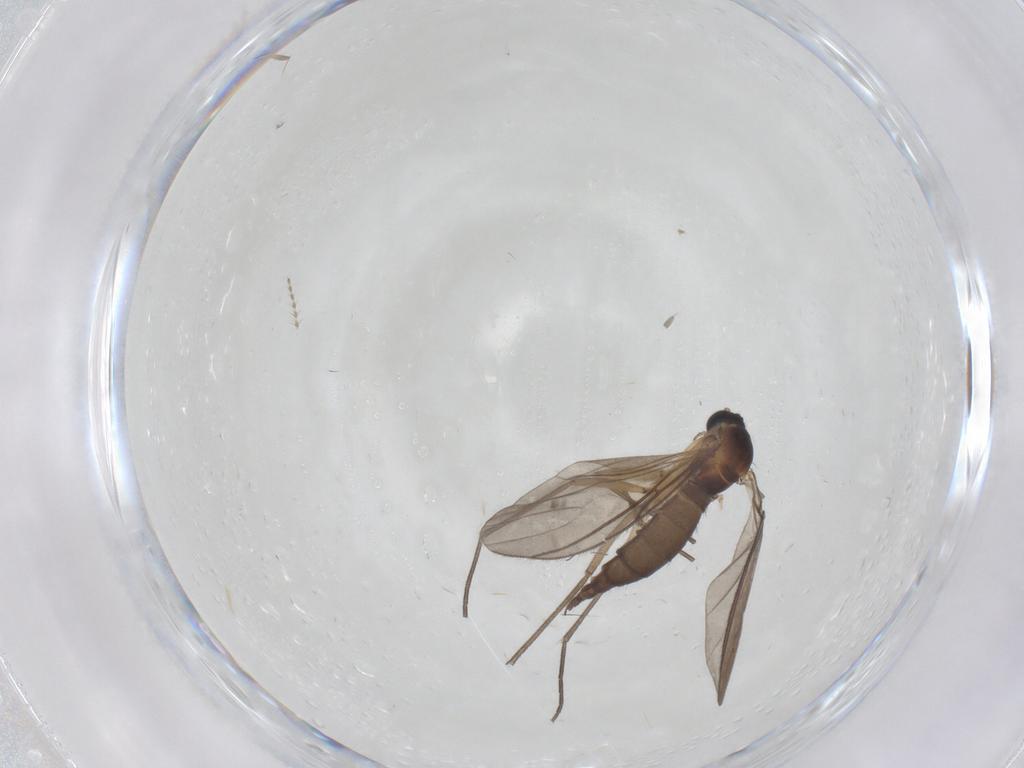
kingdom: Animalia
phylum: Arthropoda
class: Insecta
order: Diptera
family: Sciaridae
